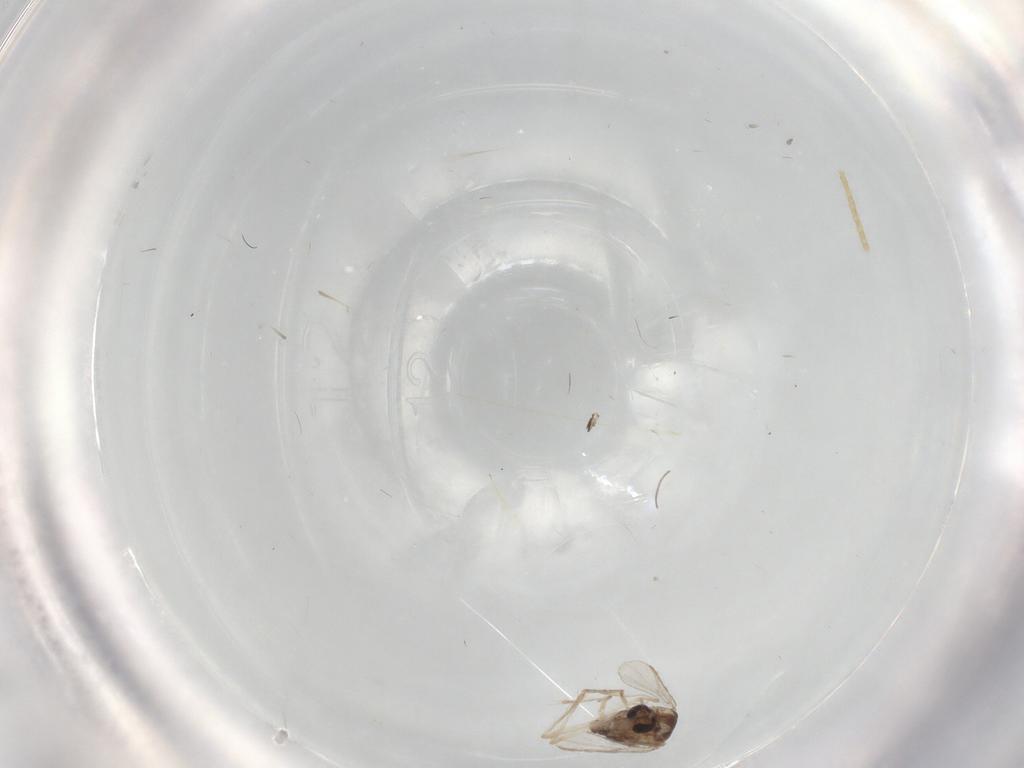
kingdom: Animalia
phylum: Arthropoda
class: Insecta
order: Diptera
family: Chironomidae
